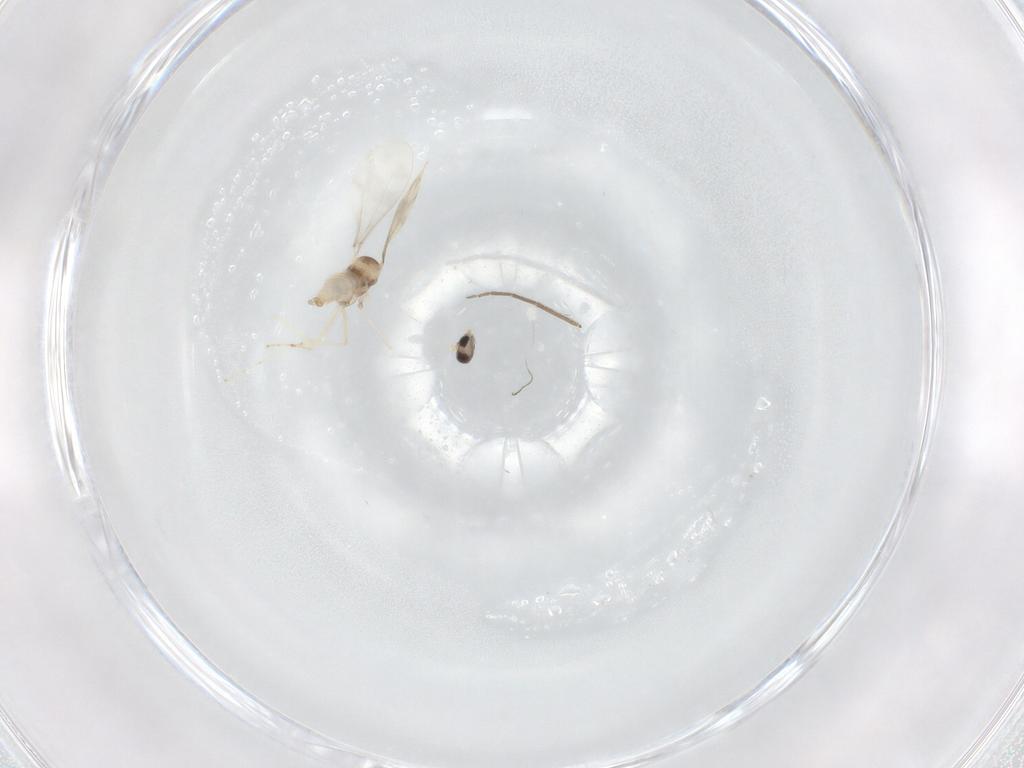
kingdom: Animalia
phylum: Arthropoda
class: Insecta
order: Diptera
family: Cecidomyiidae
